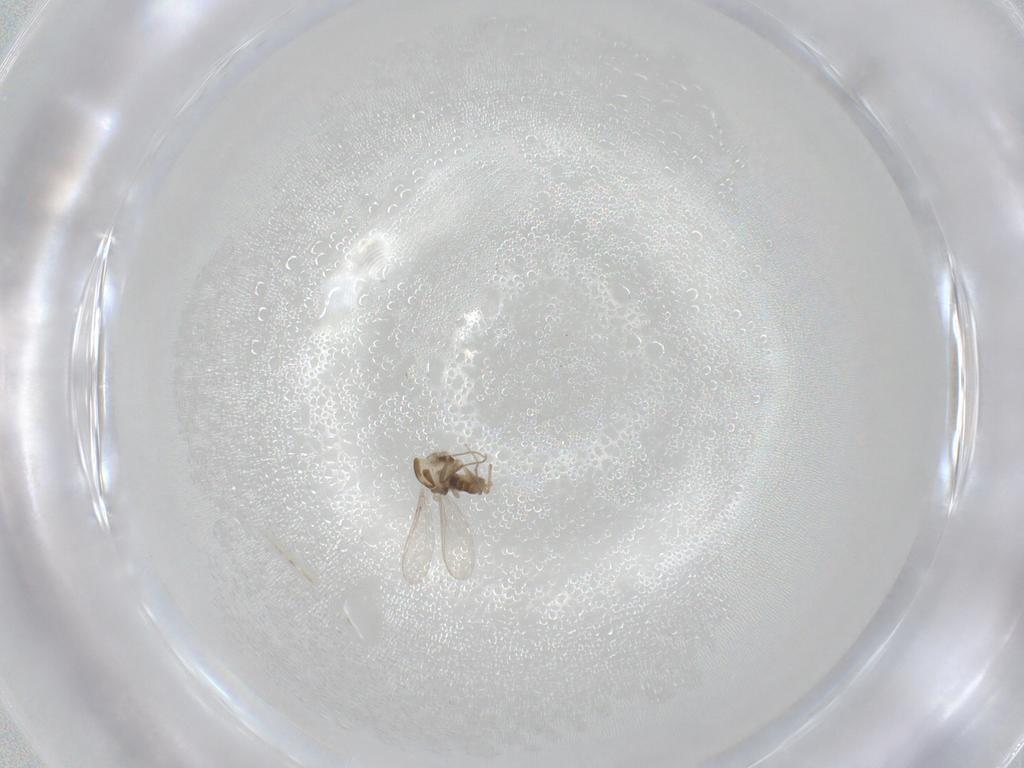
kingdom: Animalia
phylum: Arthropoda
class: Insecta
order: Diptera
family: Chironomidae
